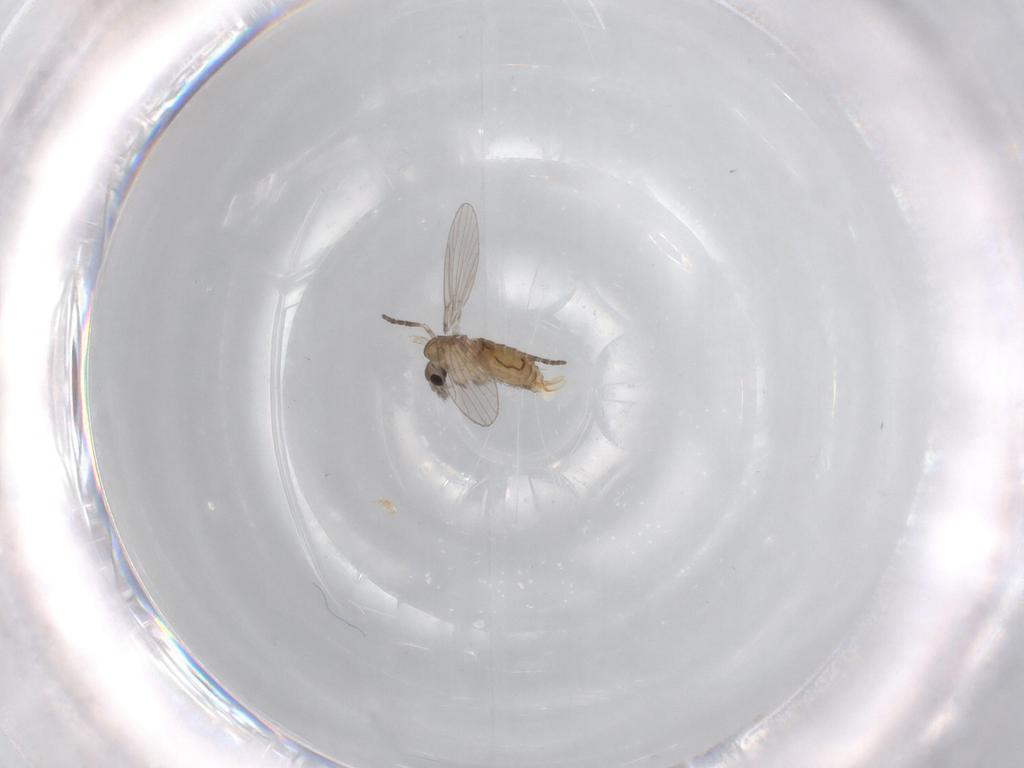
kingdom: Animalia
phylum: Arthropoda
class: Insecta
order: Diptera
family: Psychodidae
